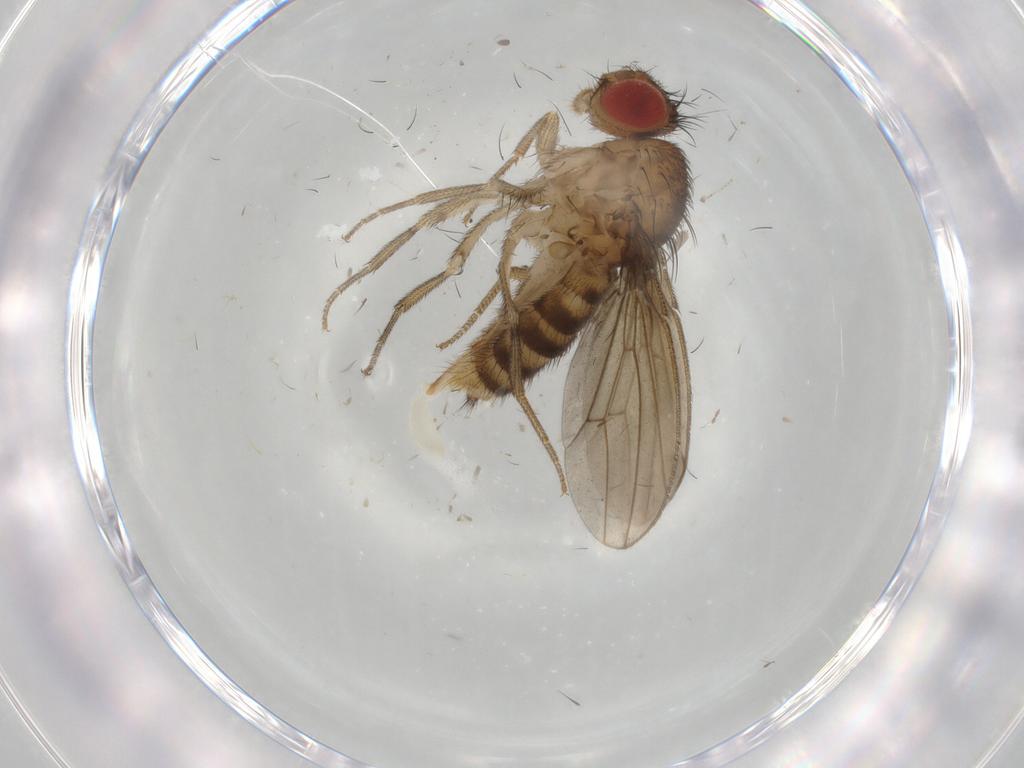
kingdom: Animalia
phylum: Arthropoda
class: Insecta
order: Diptera
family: Drosophilidae
